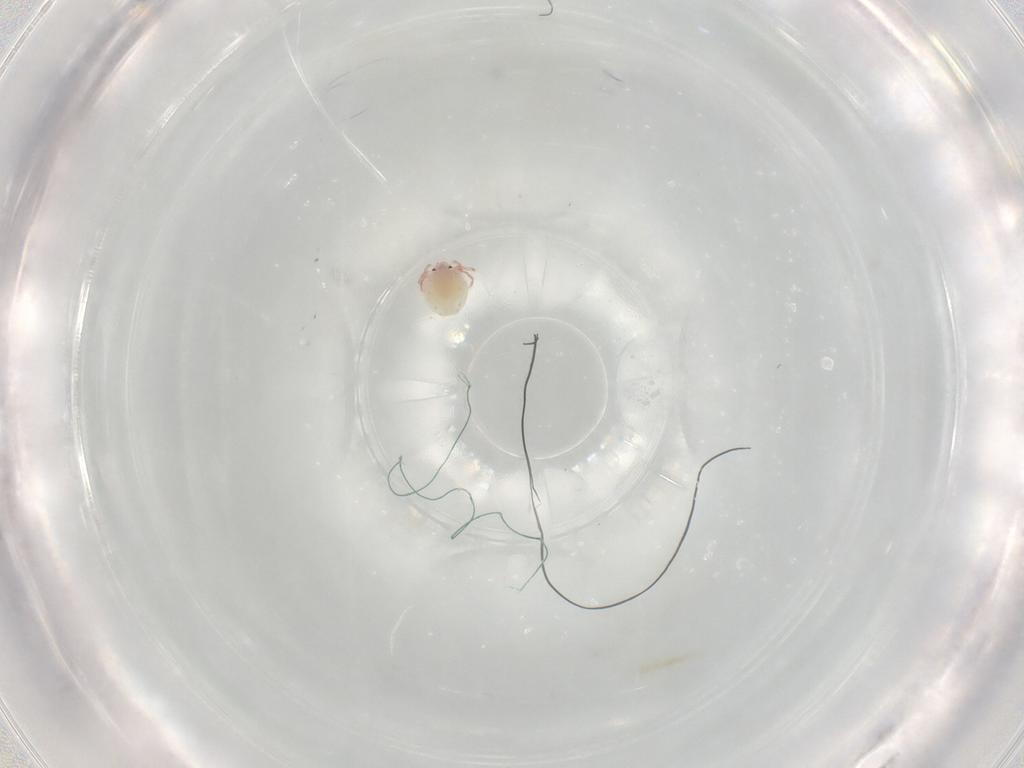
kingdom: Animalia
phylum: Arthropoda
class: Arachnida
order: Trombidiformes
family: Lebertiidae
